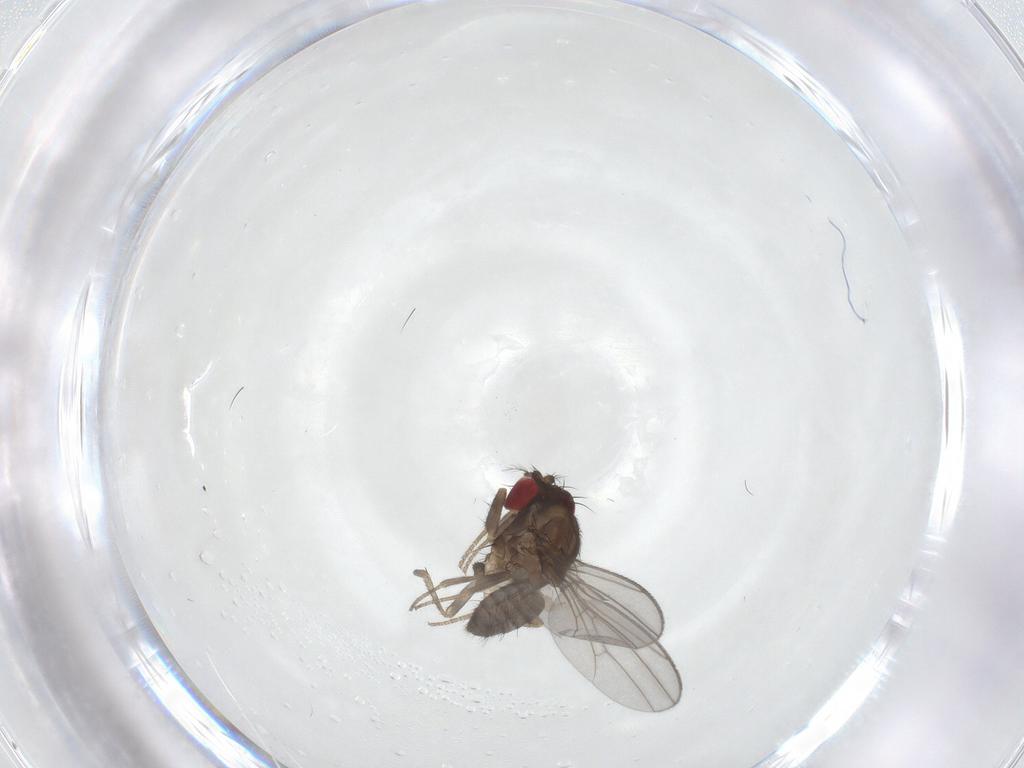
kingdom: Animalia
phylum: Arthropoda
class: Insecta
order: Diptera
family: Drosophilidae
